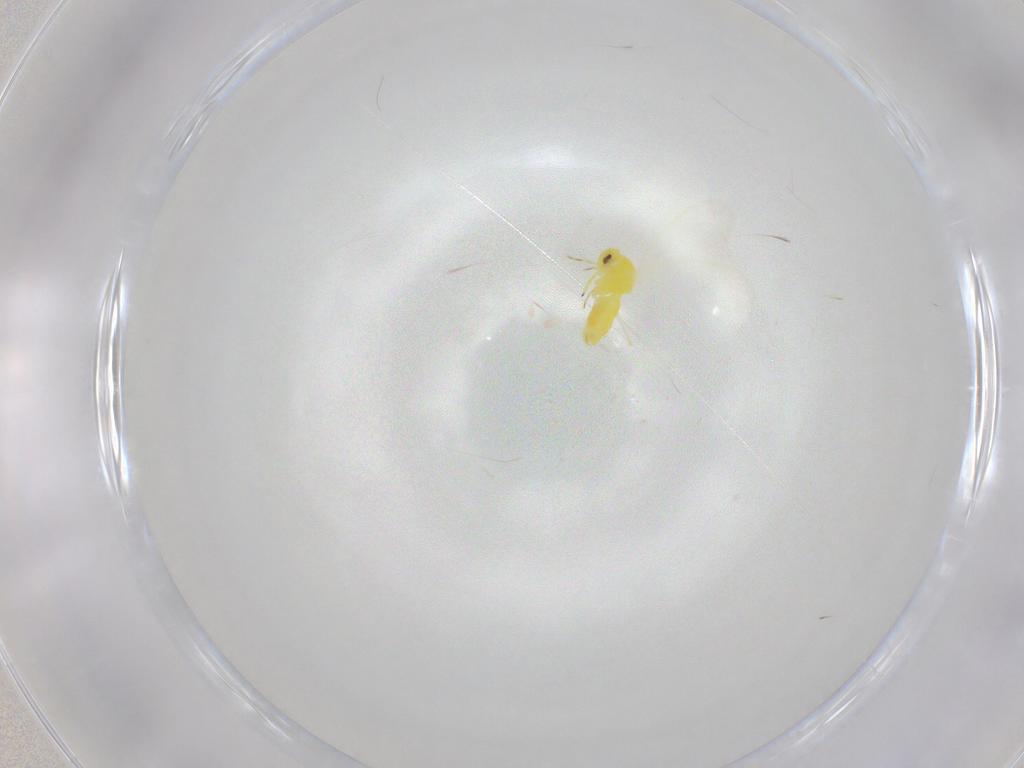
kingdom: Animalia
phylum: Arthropoda
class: Insecta
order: Hemiptera
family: Aleyrodidae
